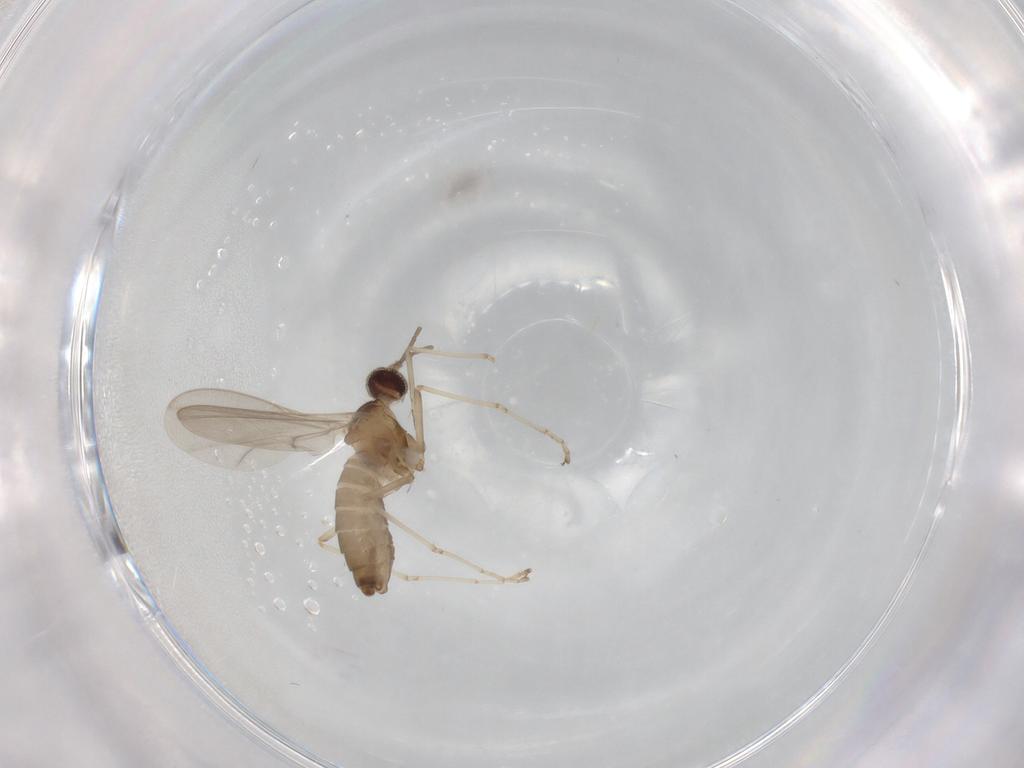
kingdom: Animalia
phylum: Arthropoda
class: Insecta
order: Diptera
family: Cecidomyiidae
